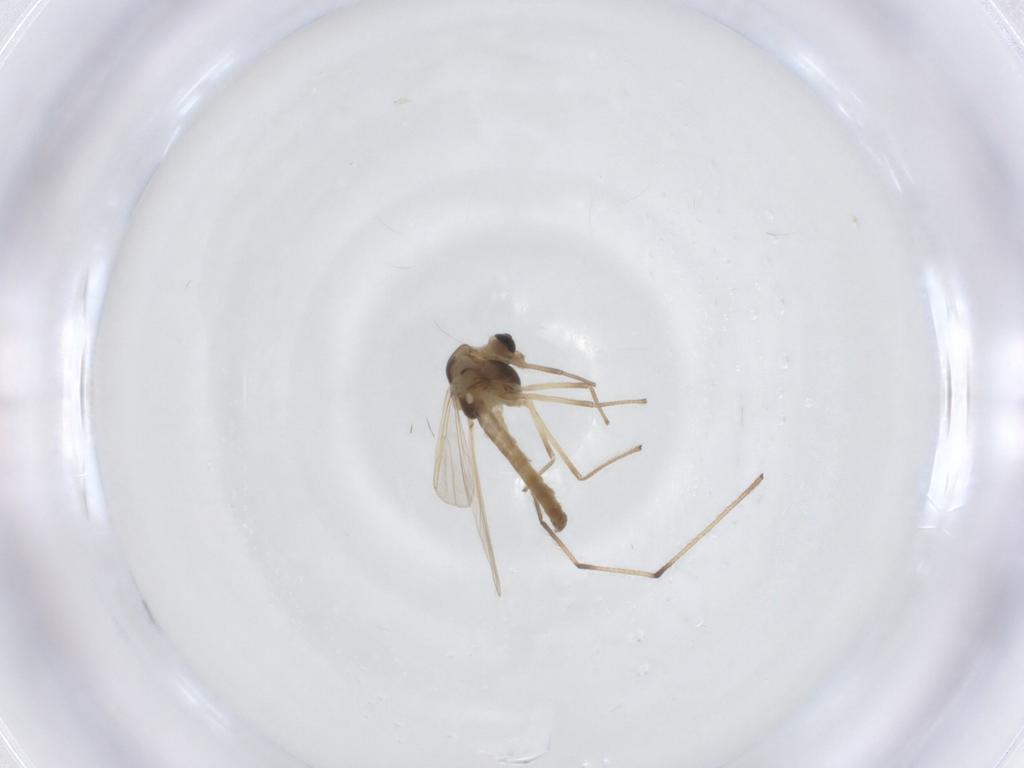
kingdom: Animalia
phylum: Arthropoda
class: Insecta
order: Diptera
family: Chironomidae
